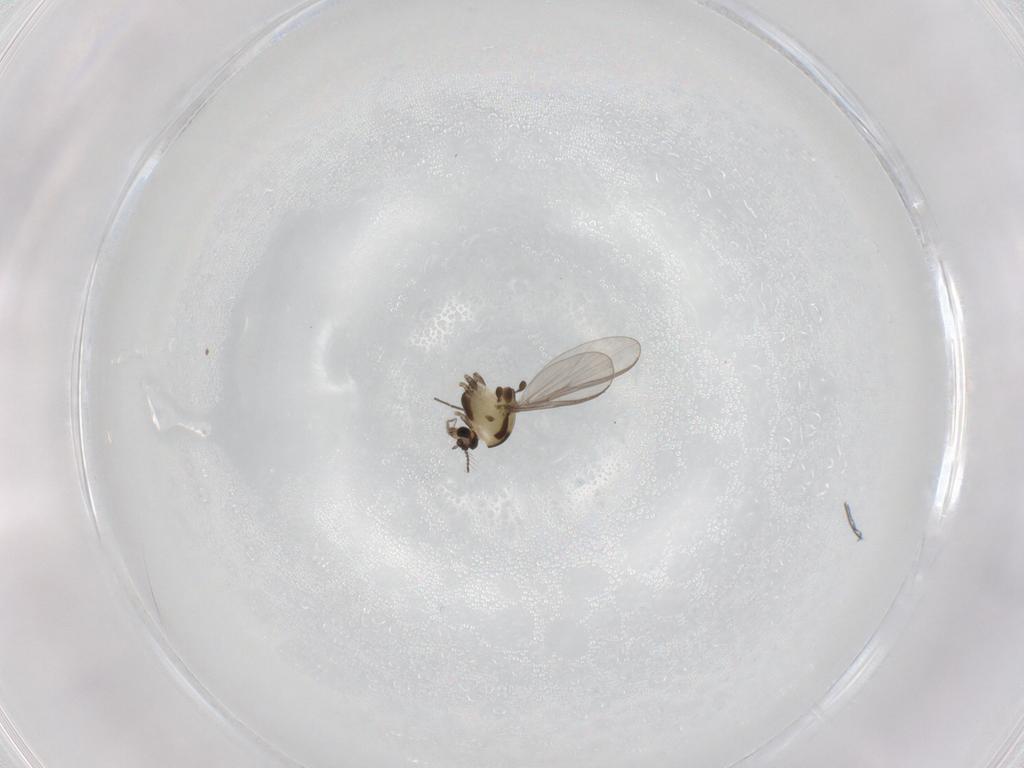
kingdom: Animalia
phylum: Arthropoda
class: Insecta
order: Diptera
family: Chironomidae
